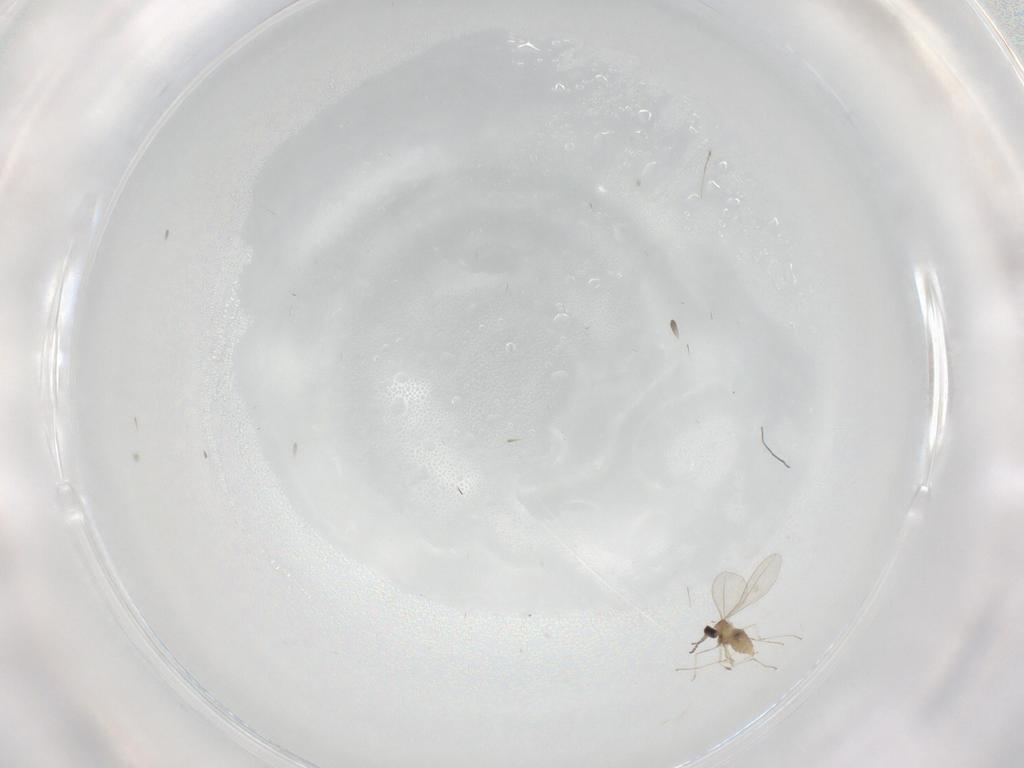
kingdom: Animalia
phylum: Arthropoda
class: Insecta
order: Diptera
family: Cecidomyiidae
